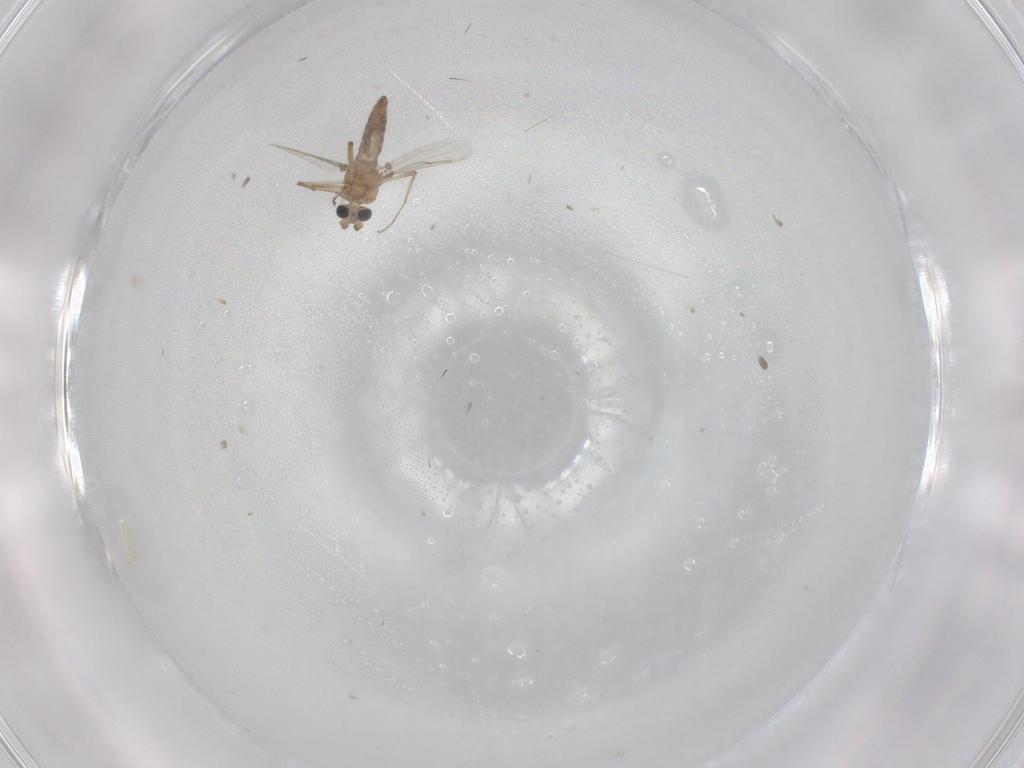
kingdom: Animalia
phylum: Arthropoda
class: Insecta
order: Diptera
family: Ceratopogonidae
